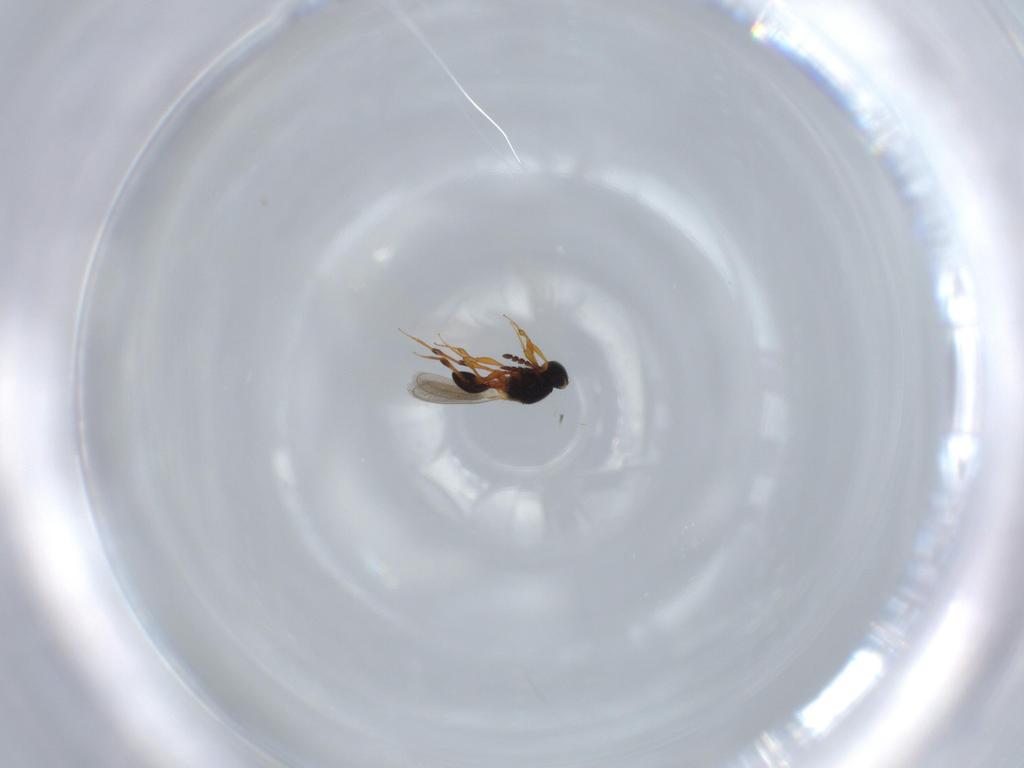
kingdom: Animalia
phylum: Arthropoda
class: Insecta
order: Hymenoptera
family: Platygastridae
